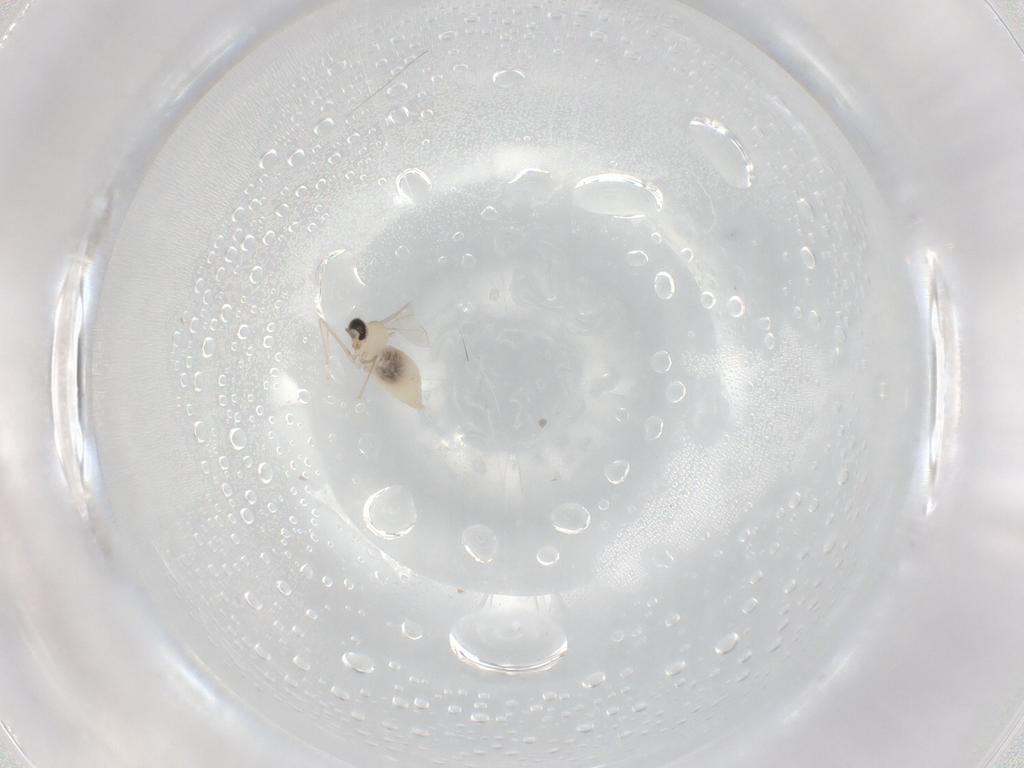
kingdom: Animalia
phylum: Arthropoda
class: Insecta
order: Diptera
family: Cecidomyiidae
